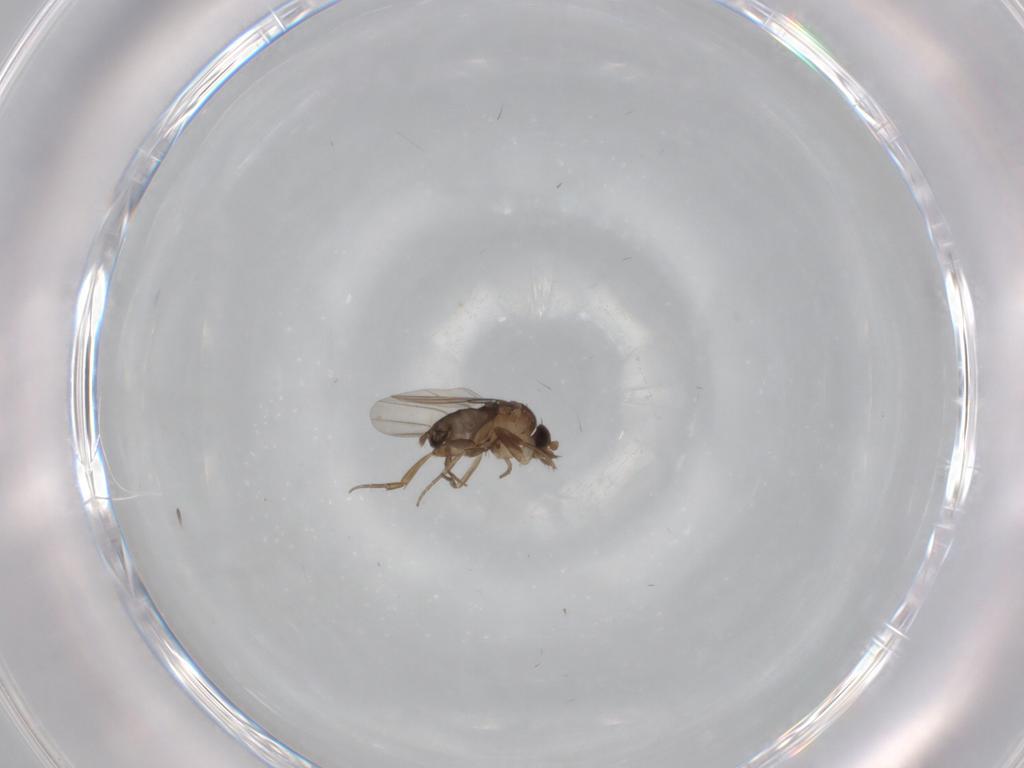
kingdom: Animalia
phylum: Arthropoda
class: Insecta
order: Diptera
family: Phoridae
